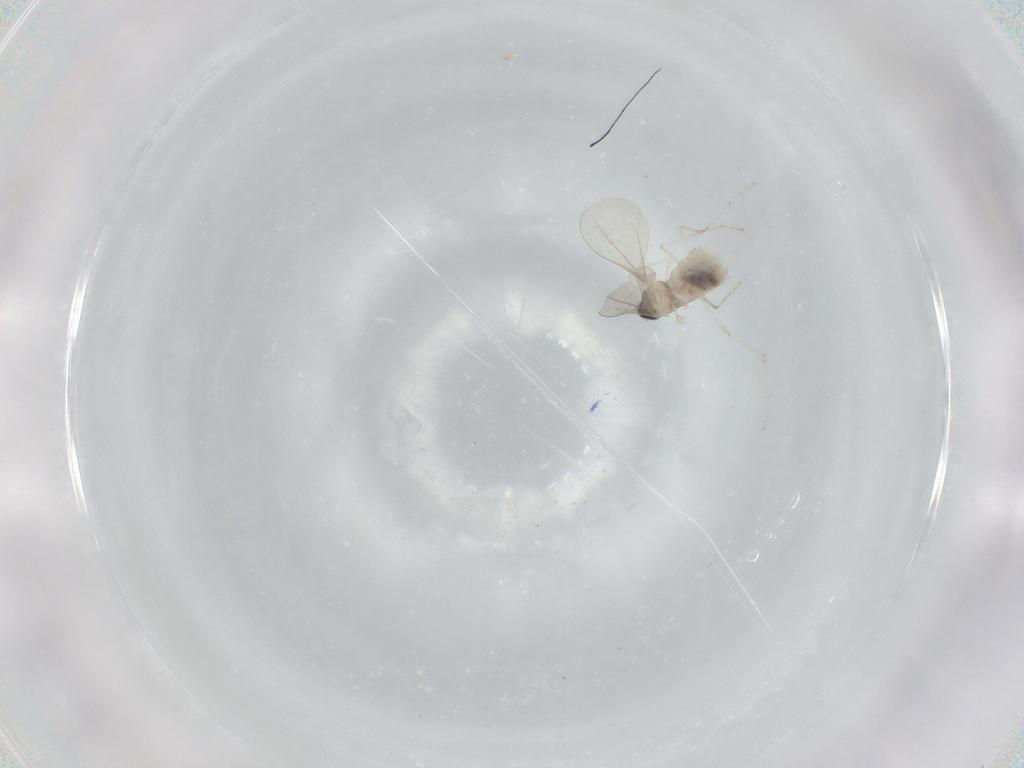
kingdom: Animalia
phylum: Arthropoda
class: Insecta
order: Diptera
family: Cecidomyiidae
